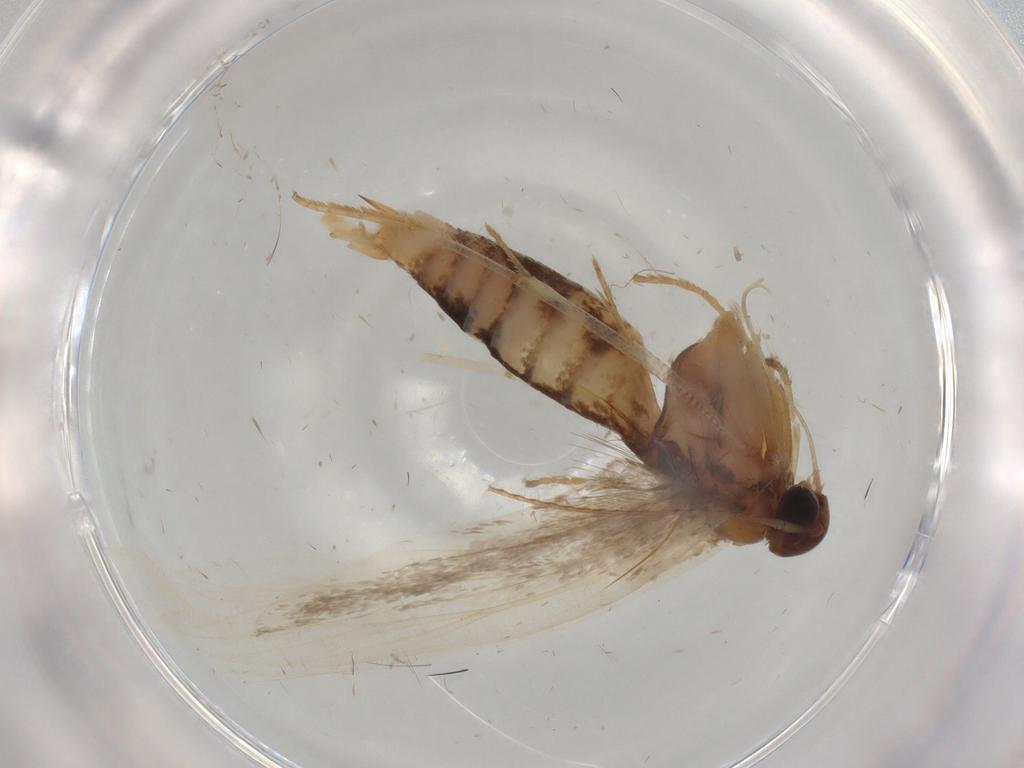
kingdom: Animalia
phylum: Arthropoda
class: Insecta
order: Lepidoptera
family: Gelechiidae
